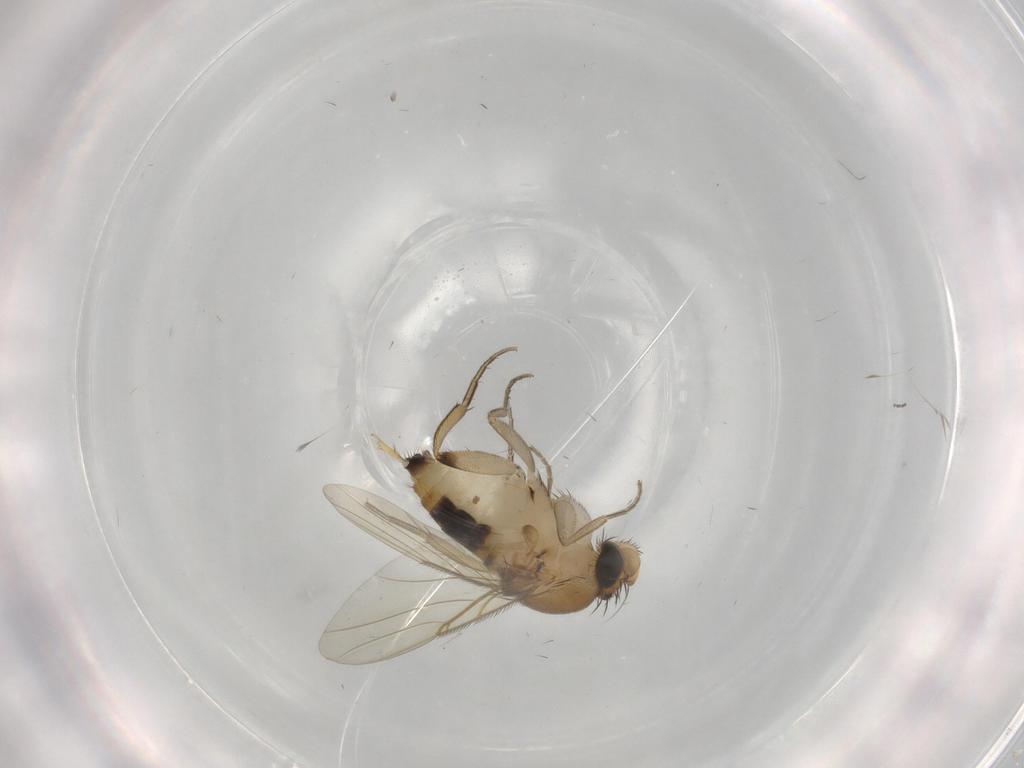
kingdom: Animalia
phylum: Arthropoda
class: Insecta
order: Diptera
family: Phoridae
